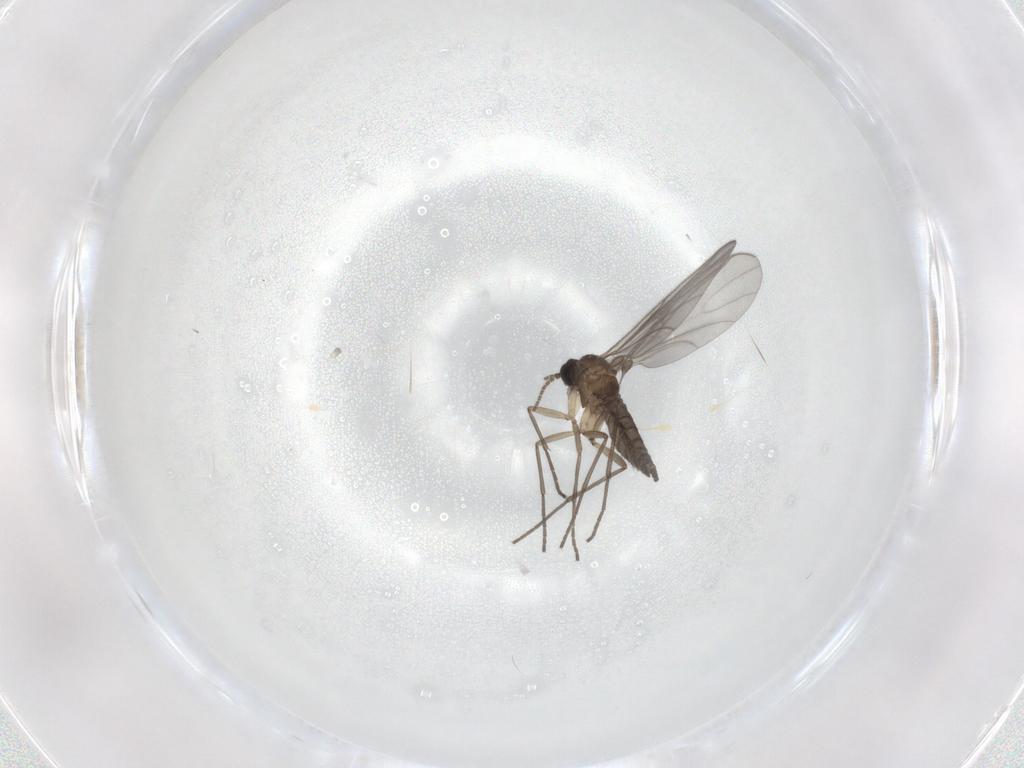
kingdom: Animalia
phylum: Arthropoda
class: Insecta
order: Diptera
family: Sciaridae
